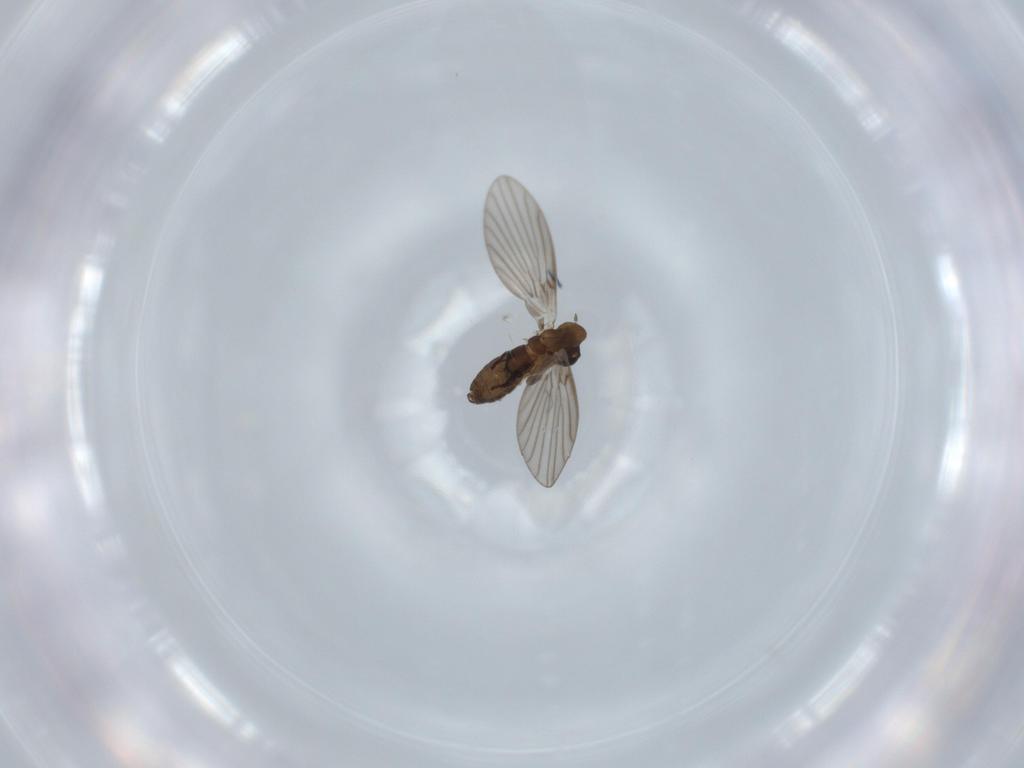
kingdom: Animalia
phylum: Arthropoda
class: Insecta
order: Diptera
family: Psychodidae
